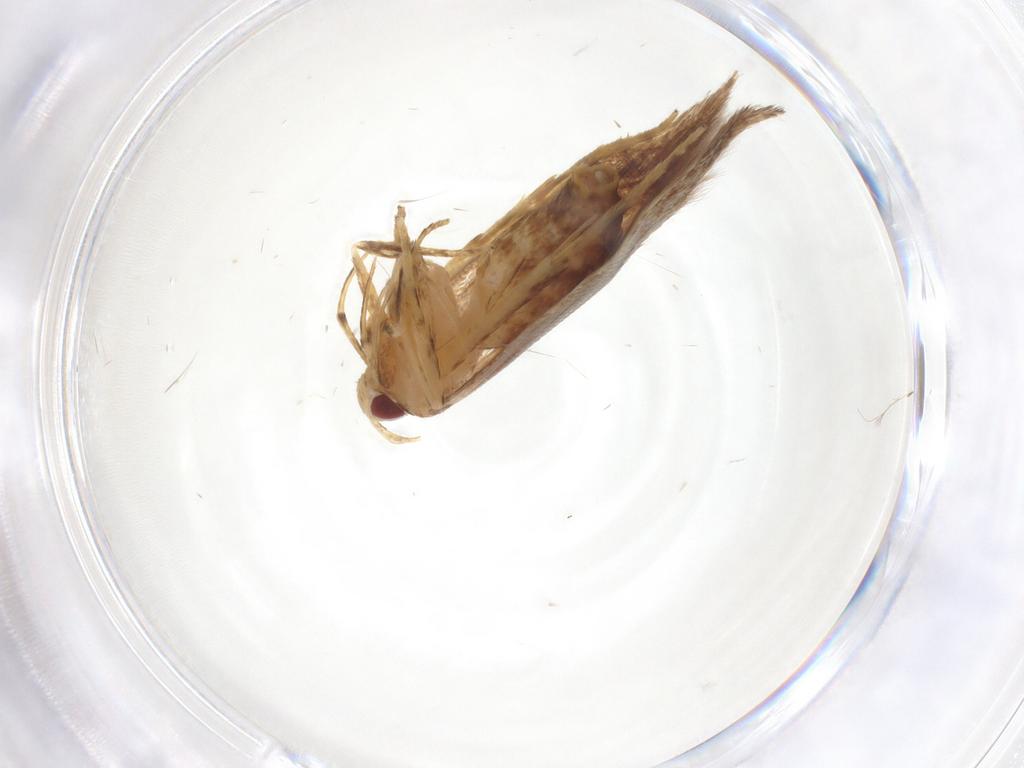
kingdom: Animalia
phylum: Arthropoda
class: Insecta
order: Lepidoptera
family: Cosmopterigidae
